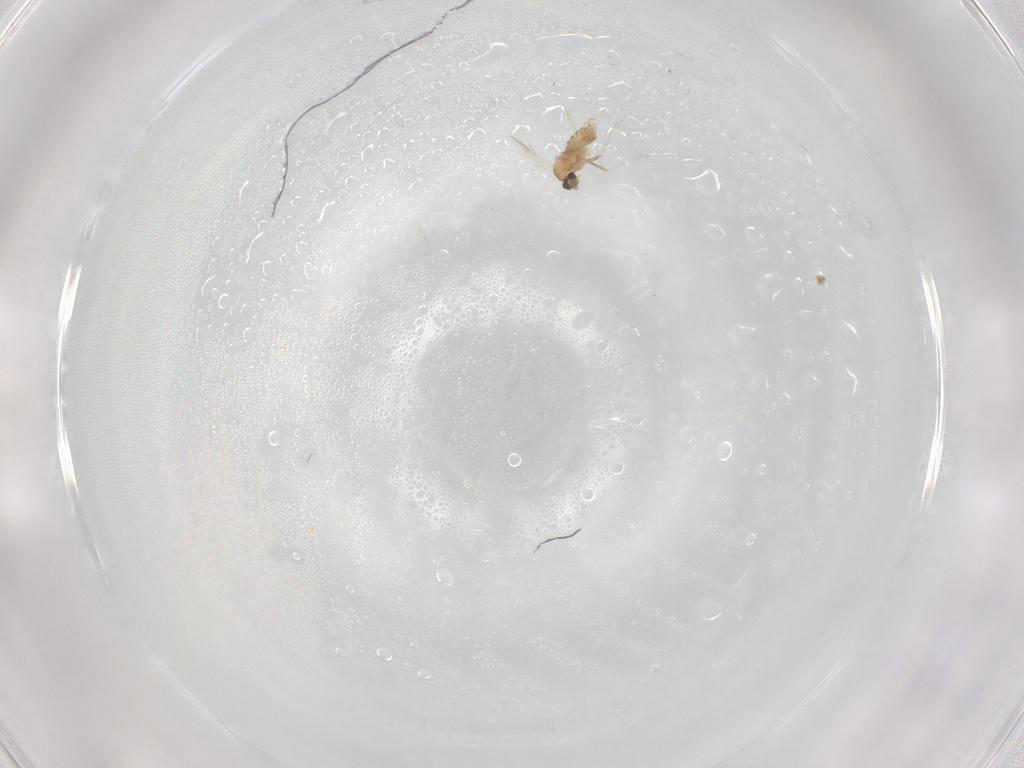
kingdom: Animalia
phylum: Arthropoda
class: Insecta
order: Diptera
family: Cecidomyiidae
